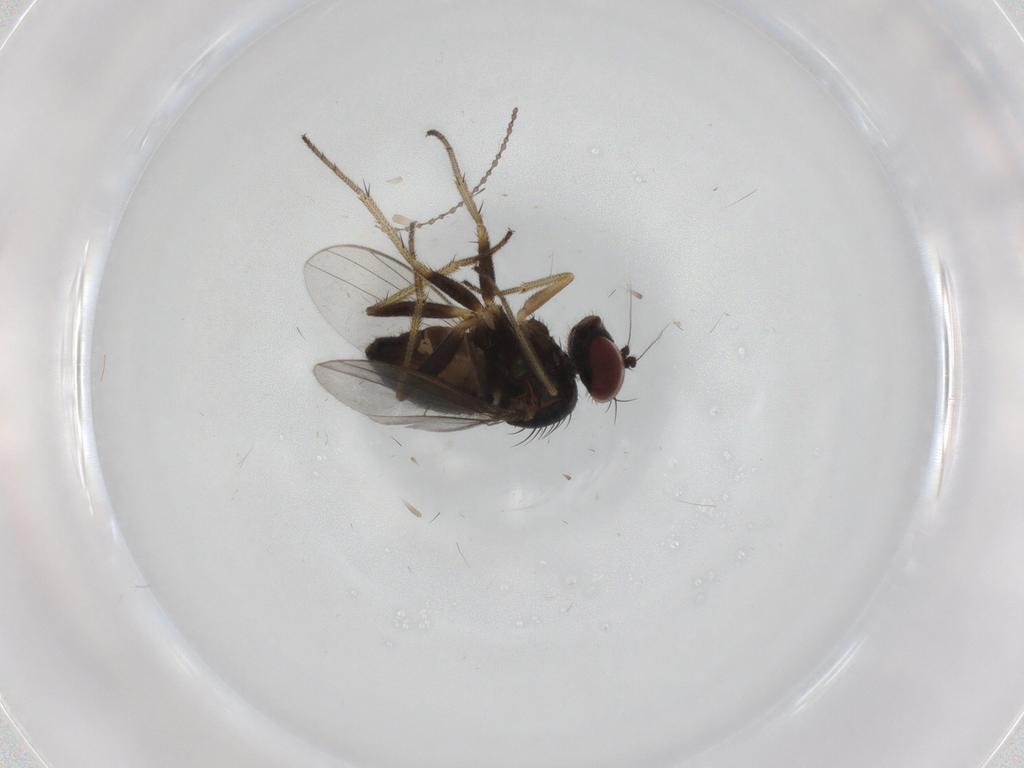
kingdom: Animalia
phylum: Arthropoda
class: Insecta
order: Diptera
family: Dolichopodidae
